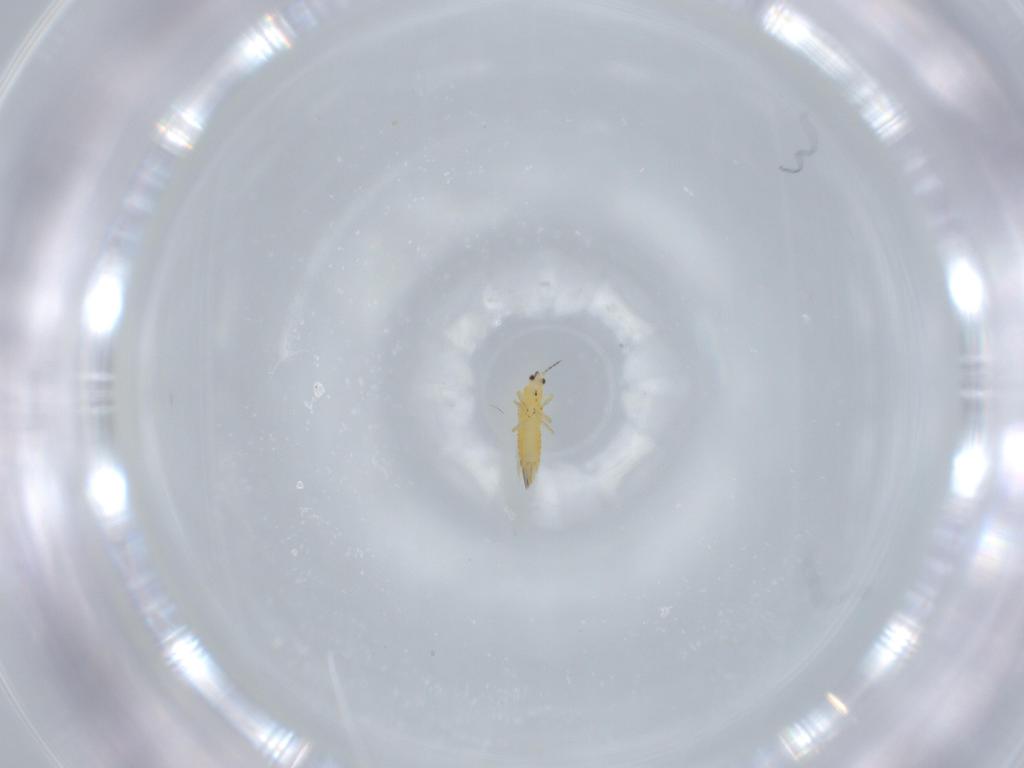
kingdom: Animalia
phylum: Arthropoda
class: Insecta
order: Thysanoptera
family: Thripidae
